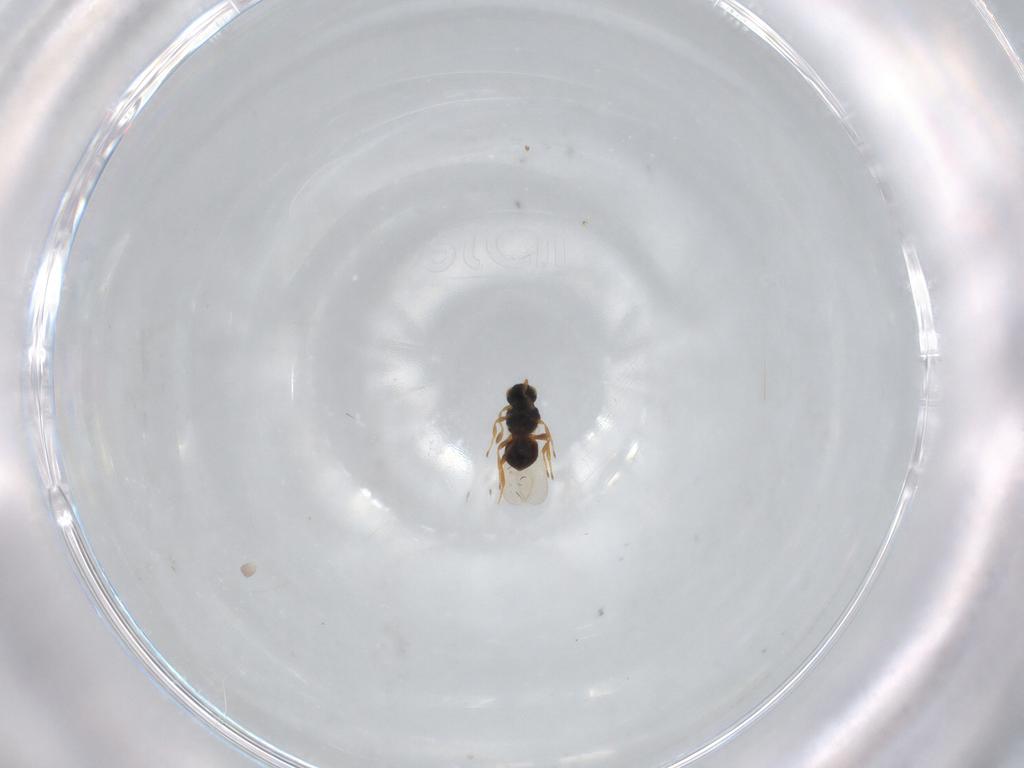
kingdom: Animalia
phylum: Arthropoda
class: Insecta
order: Hymenoptera
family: Platygastridae
